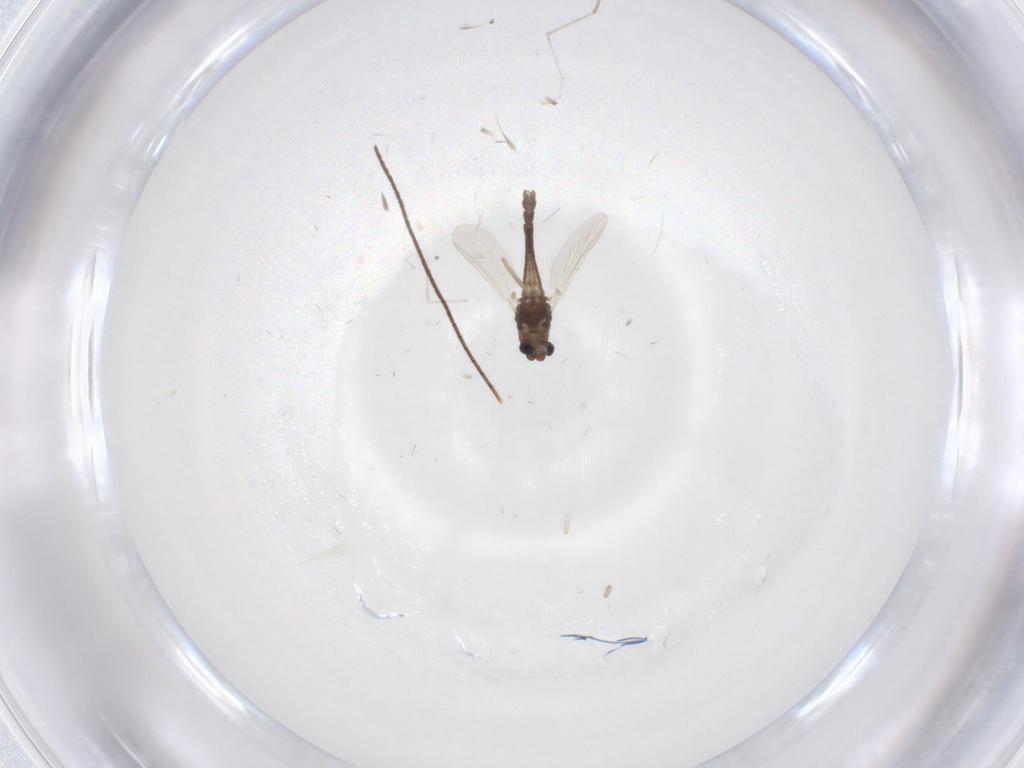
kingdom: Animalia
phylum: Arthropoda
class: Insecta
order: Diptera
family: Chironomidae
